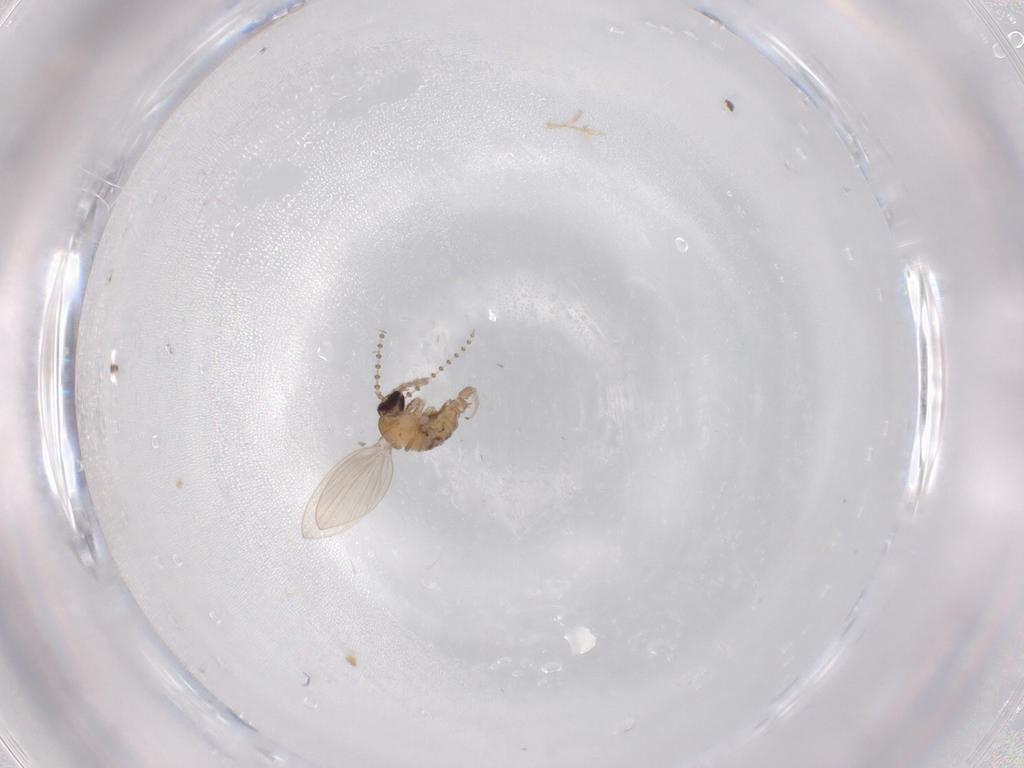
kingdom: Animalia
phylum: Arthropoda
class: Insecta
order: Diptera
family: Psychodidae
